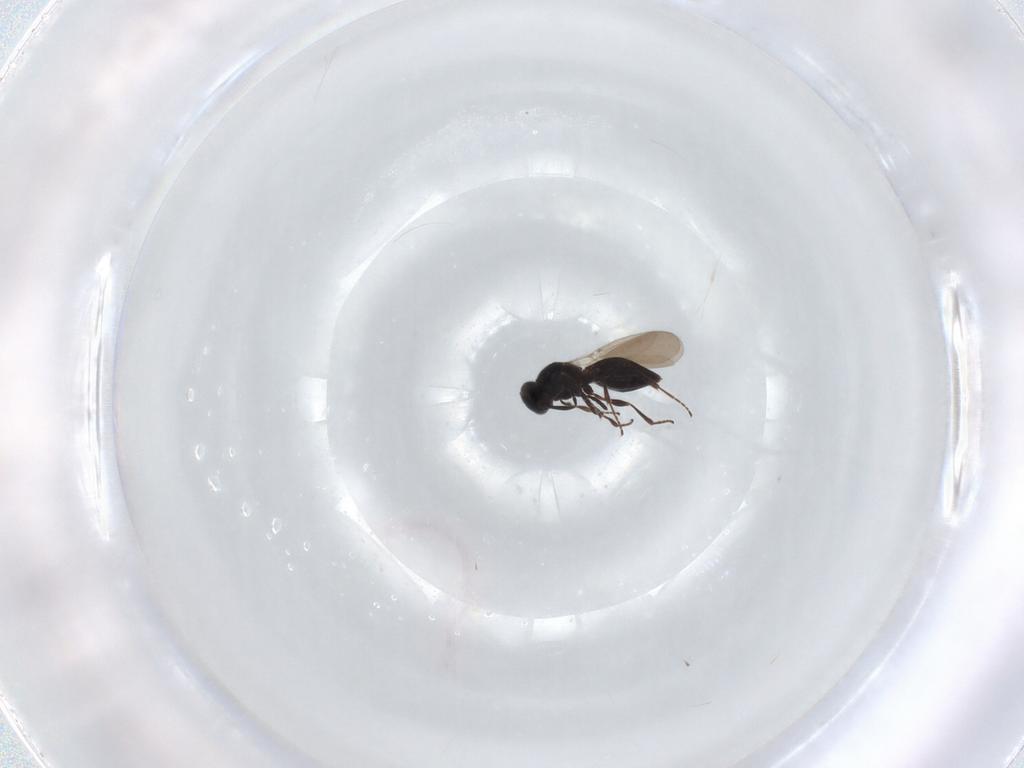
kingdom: Animalia
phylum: Arthropoda
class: Insecta
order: Hymenoptera
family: Platygastridae
